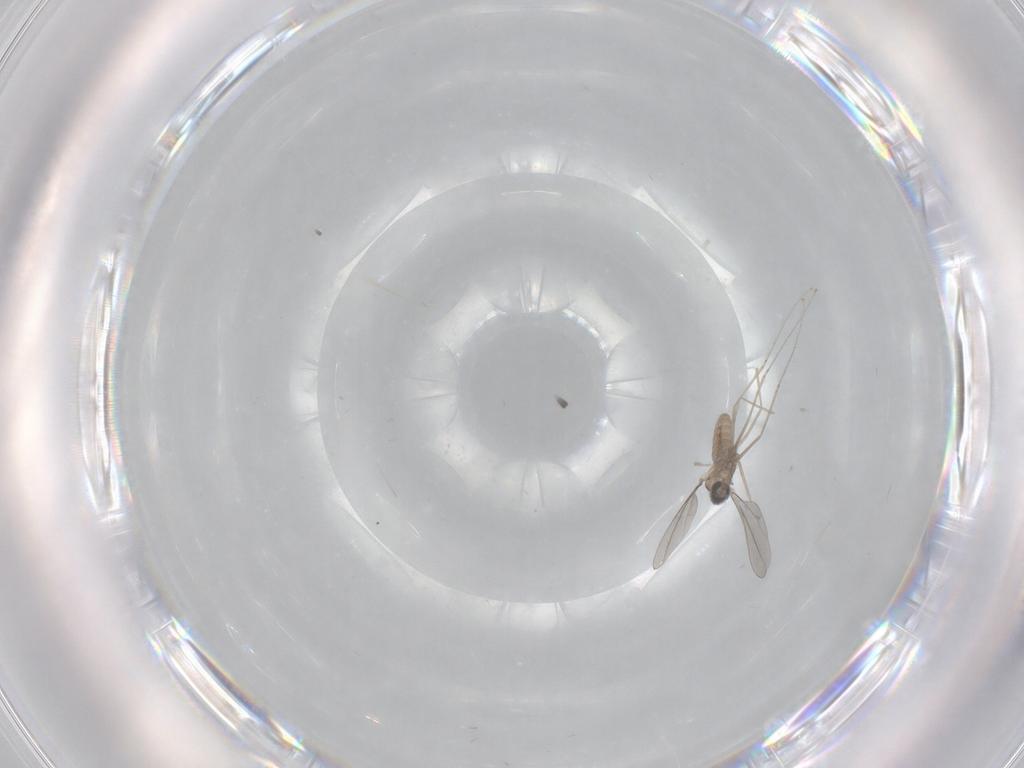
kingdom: Animalia
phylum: Arthropoda
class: Insecta
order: Diptera
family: Cecidomyiidae
